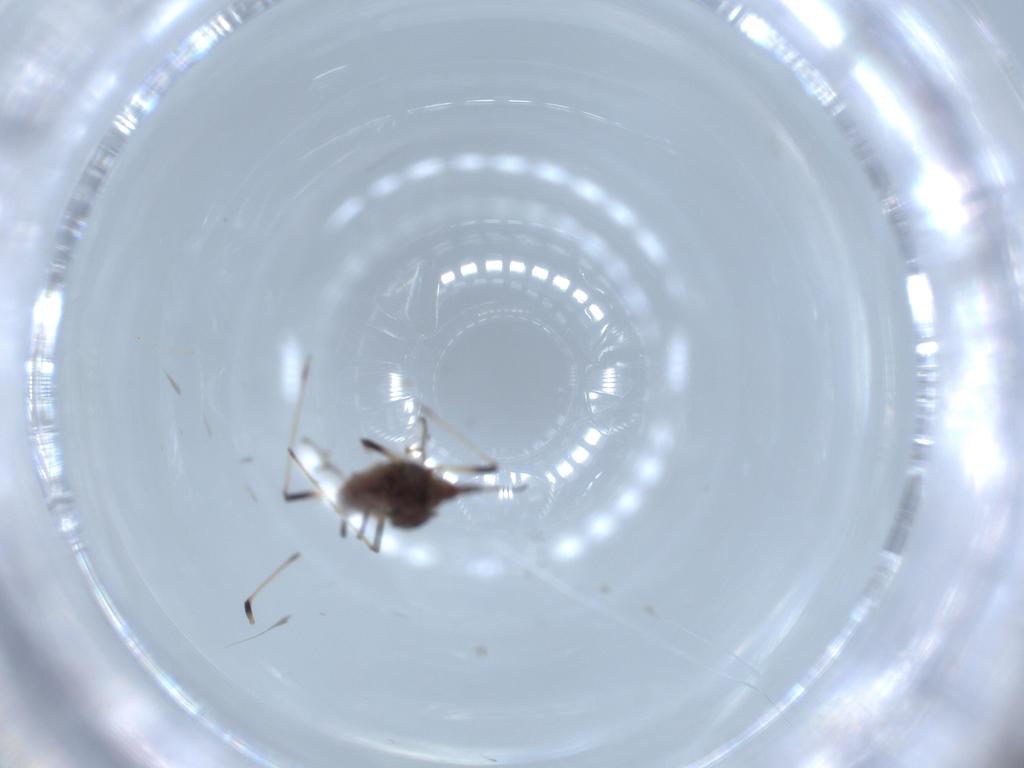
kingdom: Animalia
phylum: Arthropoda
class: Insecta
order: Hemiptera
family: Aphididae
